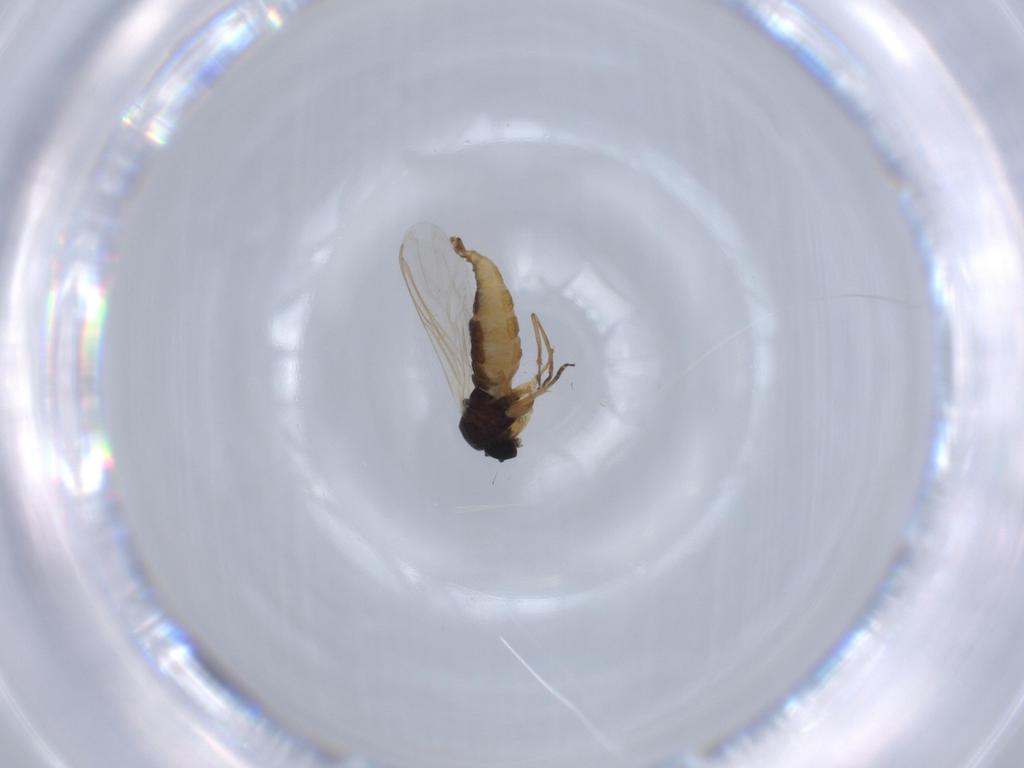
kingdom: Animalia
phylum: Arthropoda
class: Insecta
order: Diptera
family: Sciaridae
